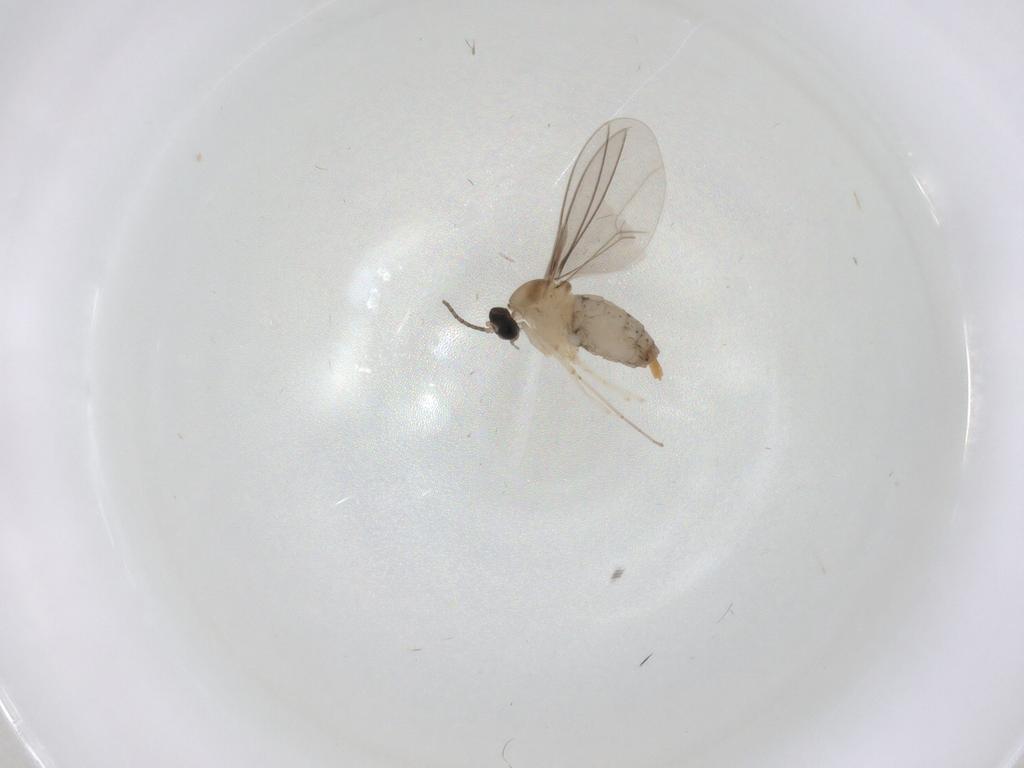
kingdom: Animalia
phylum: Arthropoda
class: Insecta
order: Diptera
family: Cecidomyiidae
